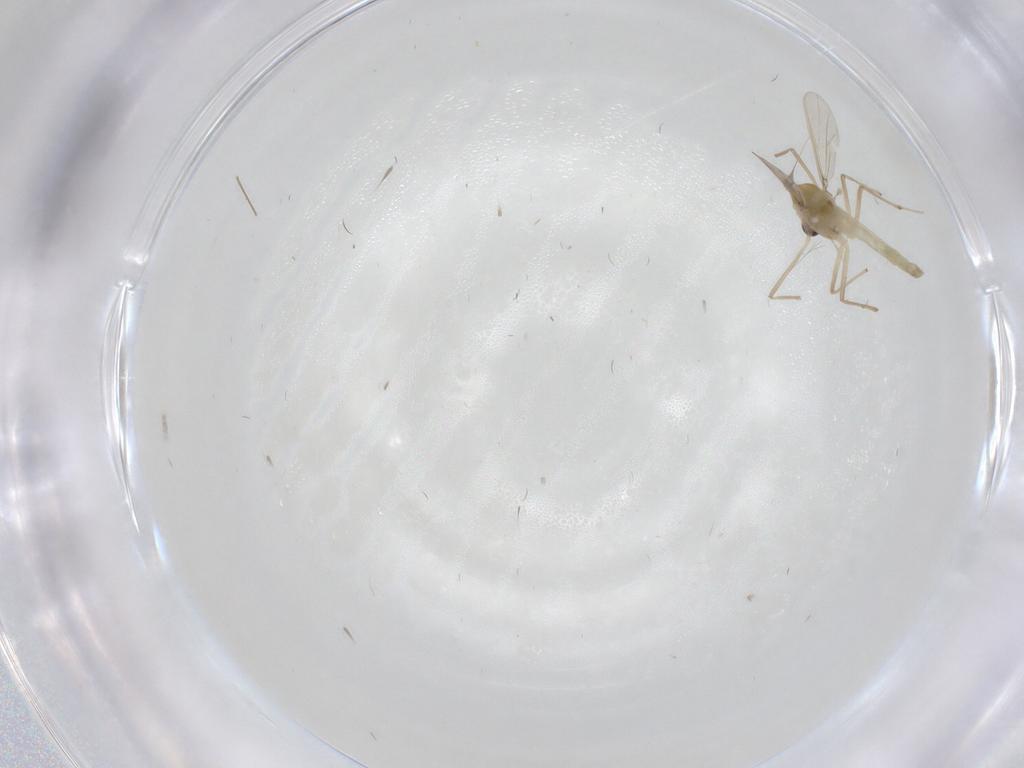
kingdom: Animalia
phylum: Arthropoda
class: Insecta
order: Diptera
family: Chironomidae
